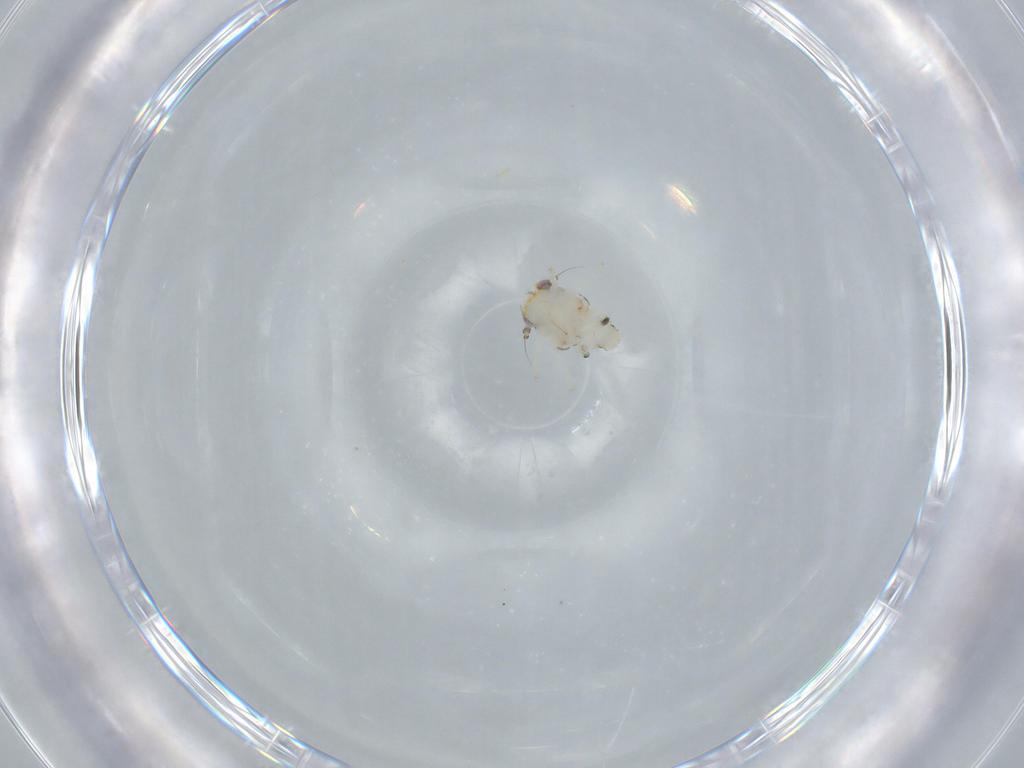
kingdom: Animalia
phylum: Arthropoda
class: Insecta
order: Hemiptera
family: Nogodinidae
